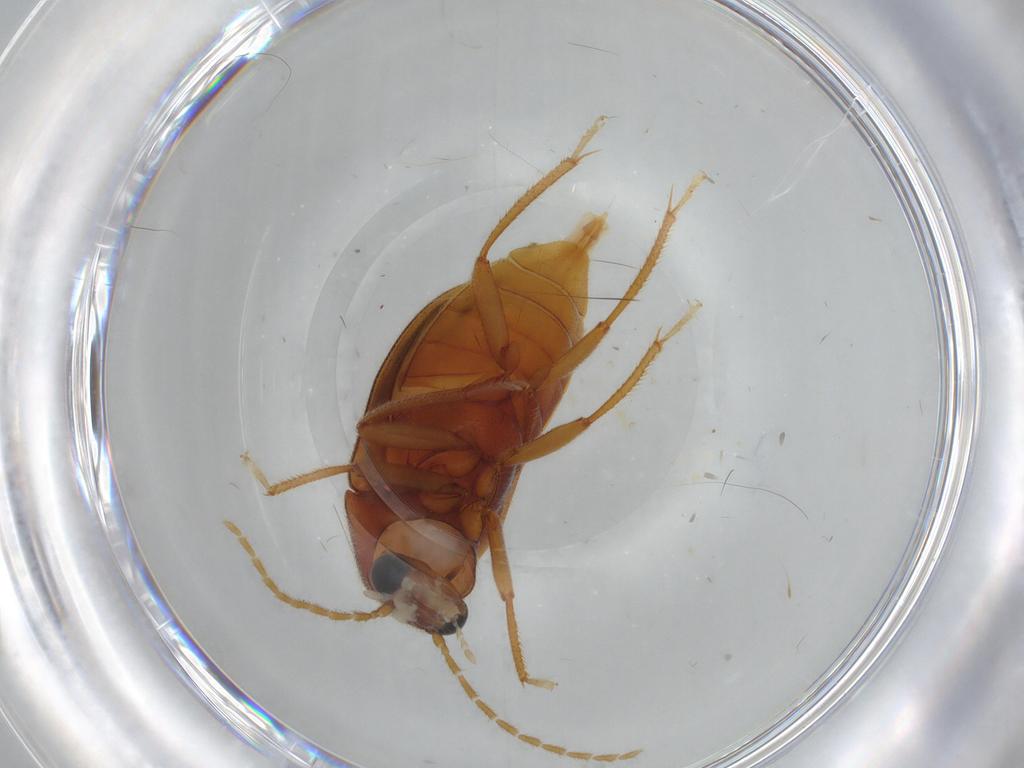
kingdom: Animalia
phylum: Arthropoda
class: Insecta
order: Coleoptera
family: Ptilodactylidae
